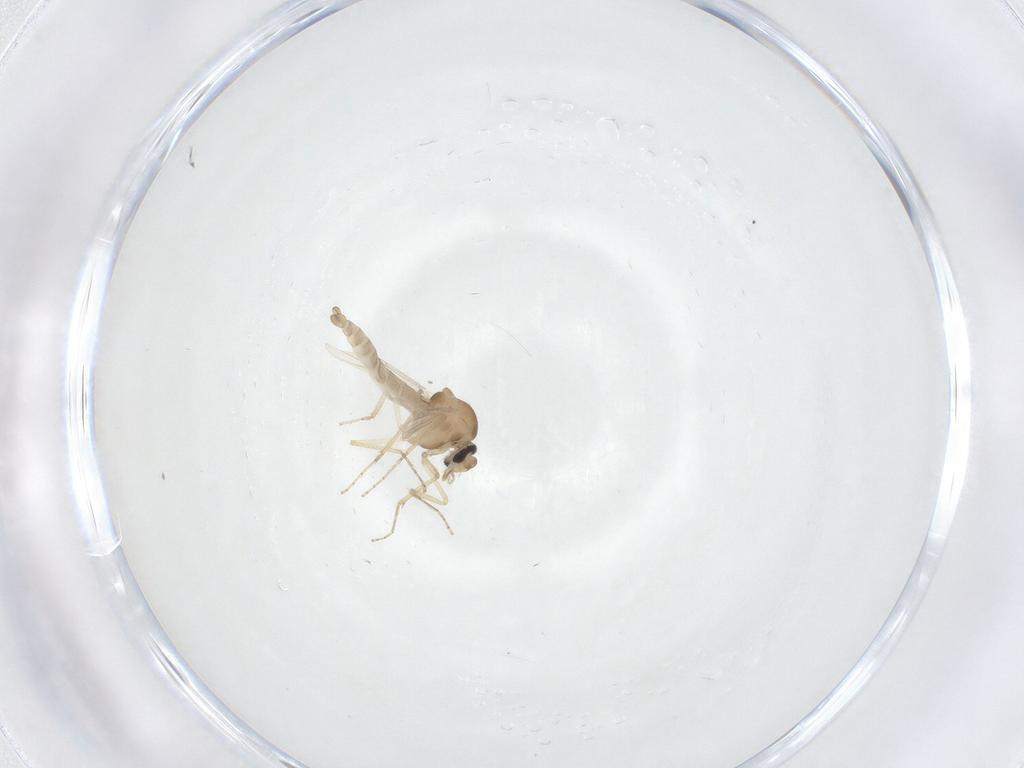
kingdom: Animalia
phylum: Arthropoda
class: Insecta
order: Diptera
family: Ceratopogonidae
